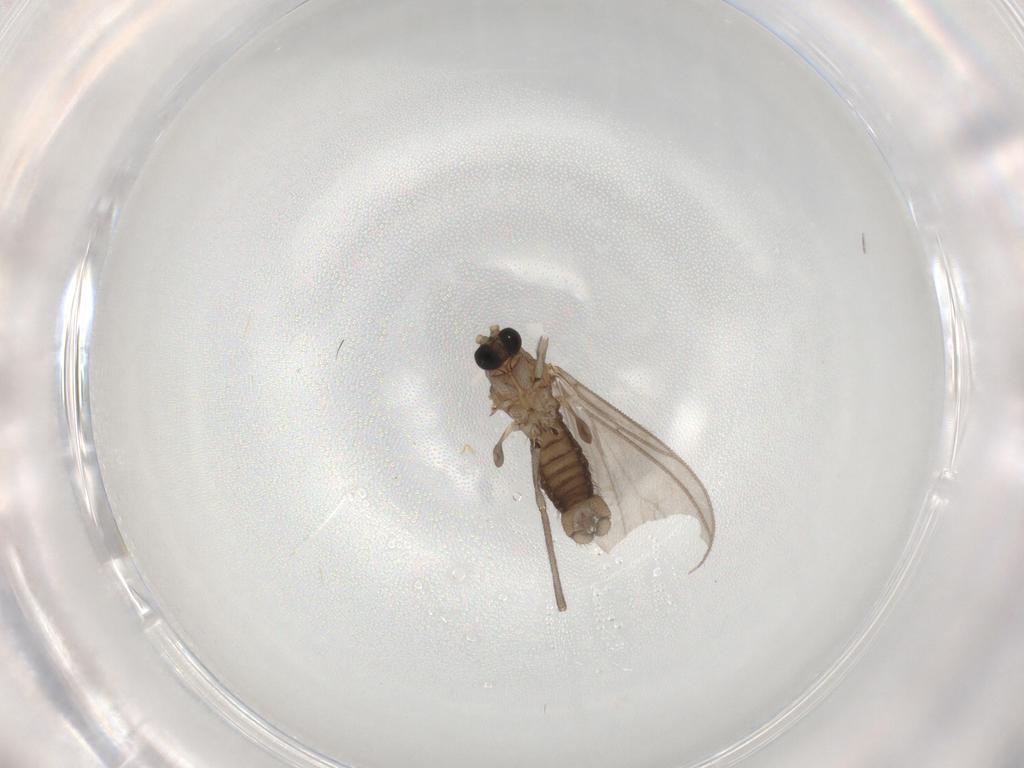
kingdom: Animalia
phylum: Arthropoda
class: Insecta
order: Diptera
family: Sciaridae
